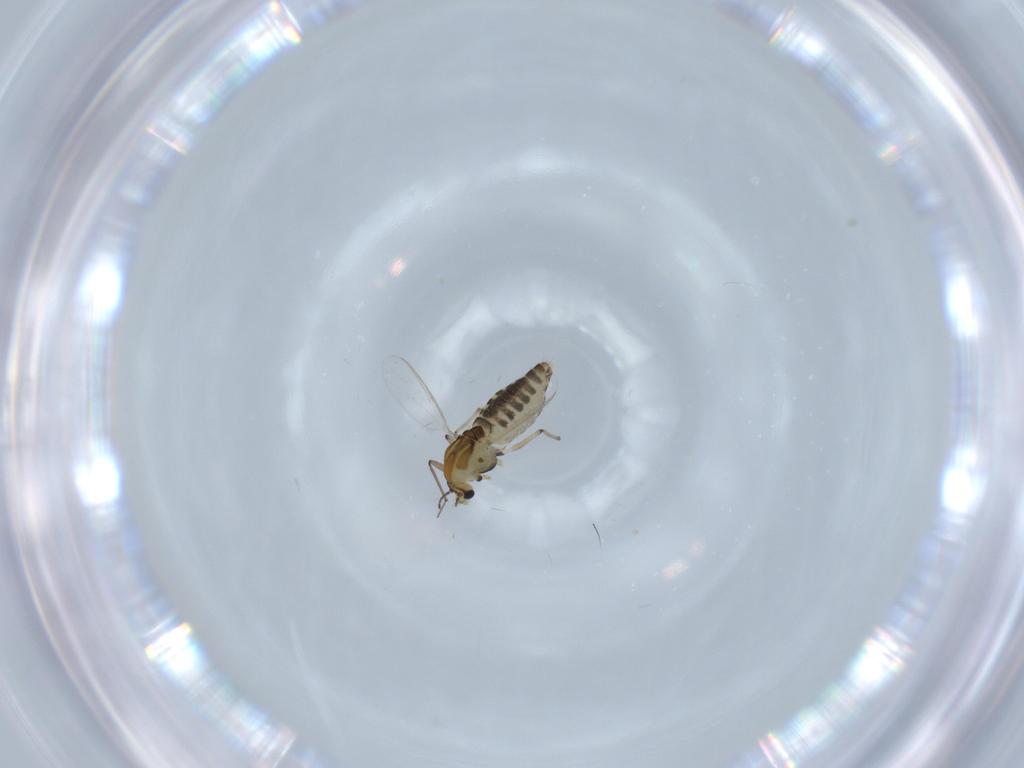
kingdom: Animalia
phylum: Arthropoda
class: Insecta
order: Diptera
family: Chironomidae
